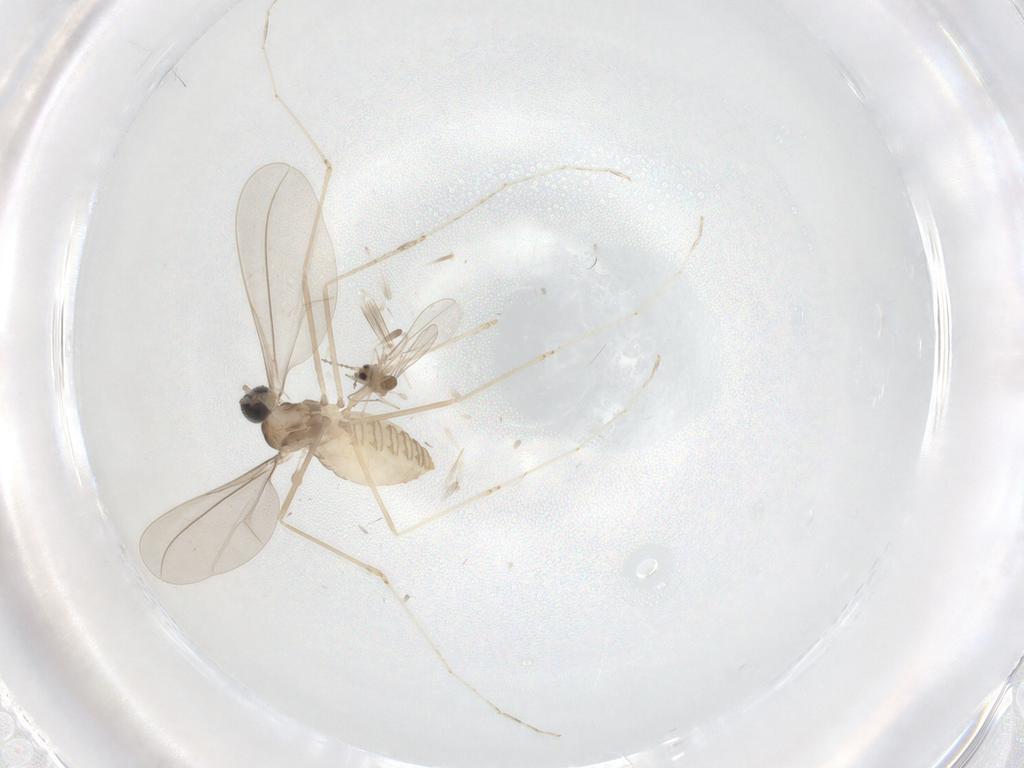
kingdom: Animalia
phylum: Arthropoda
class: Insecta
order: Diptera
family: Cecidomyiidae
